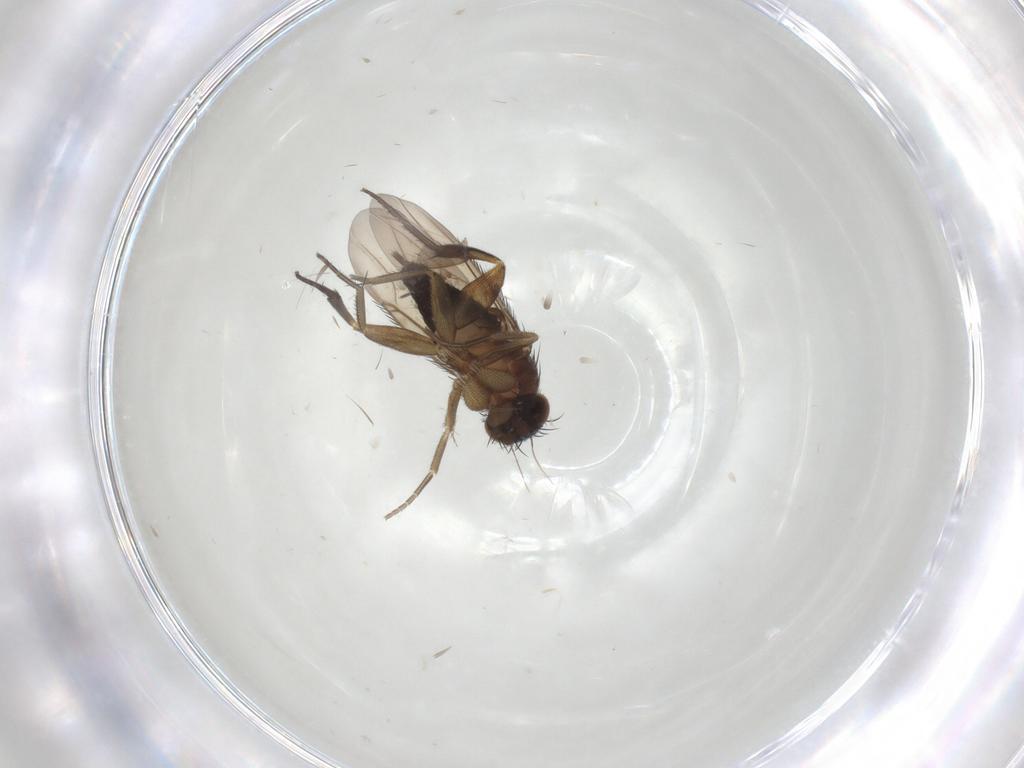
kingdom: Animalia
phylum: Arthropoda
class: Insecta
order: Diptera
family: Phoridae
